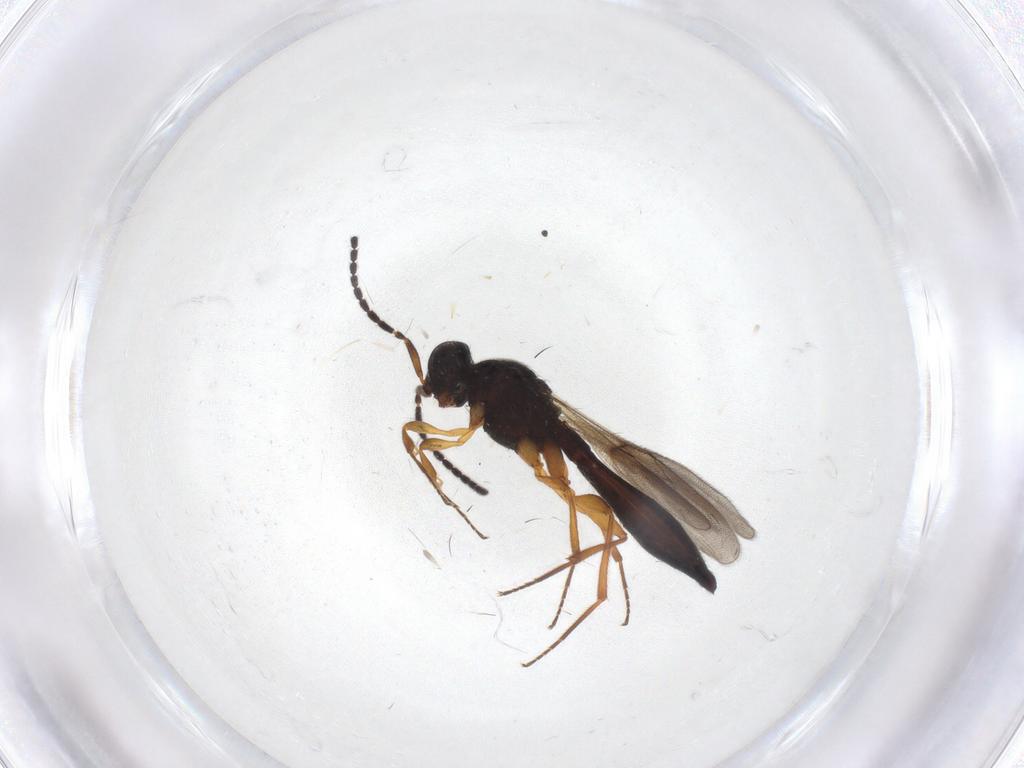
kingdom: Animalia
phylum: Arthropoda
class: Insecta
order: Hymenoptera
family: Scelionidae
